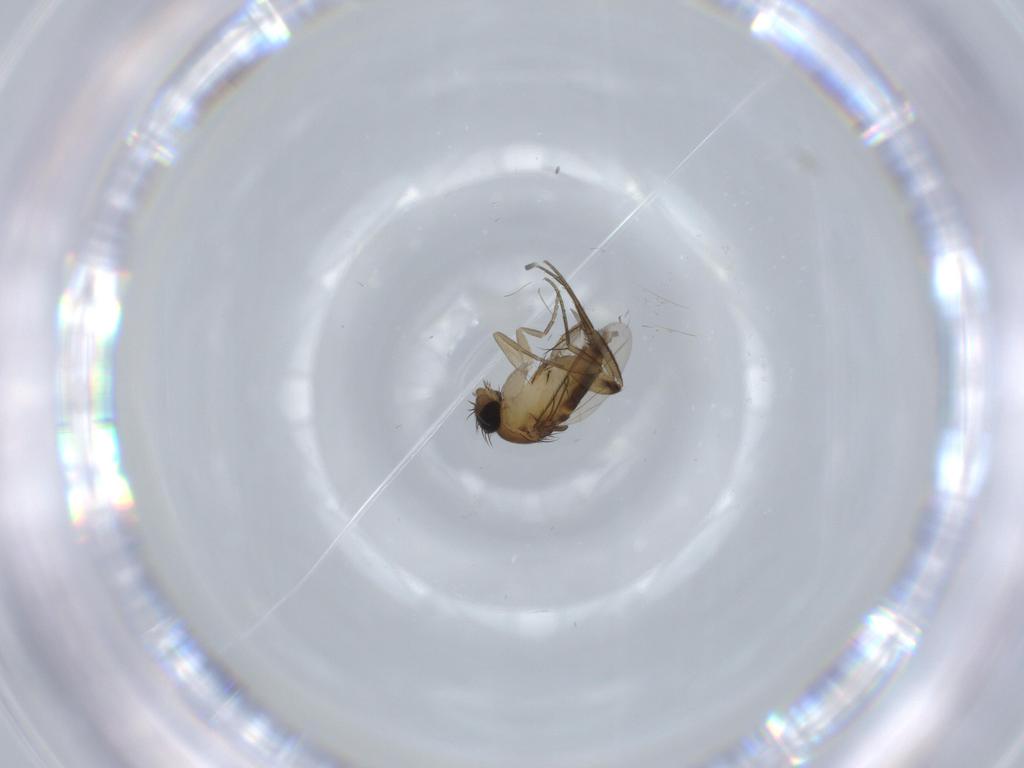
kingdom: Animalia
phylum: Arthropoda
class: Insecta
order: Diptera
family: Phoridae
